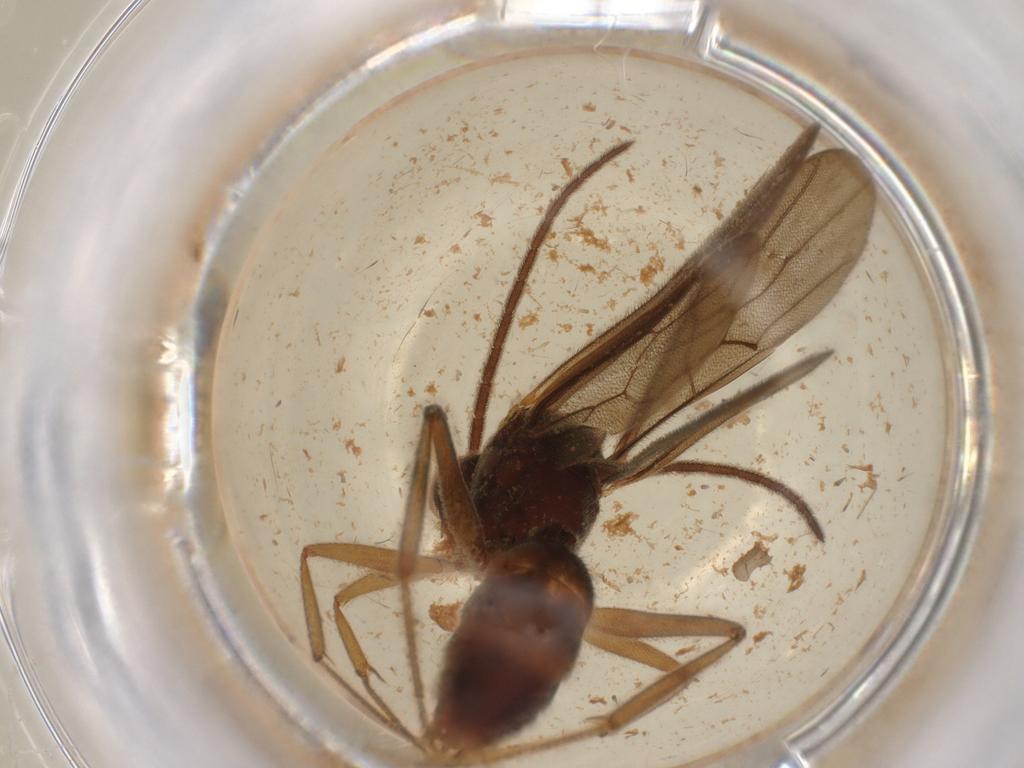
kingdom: Animalia
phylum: Arthropoda
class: Insecta
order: Hymenoptera
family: Formicidae
